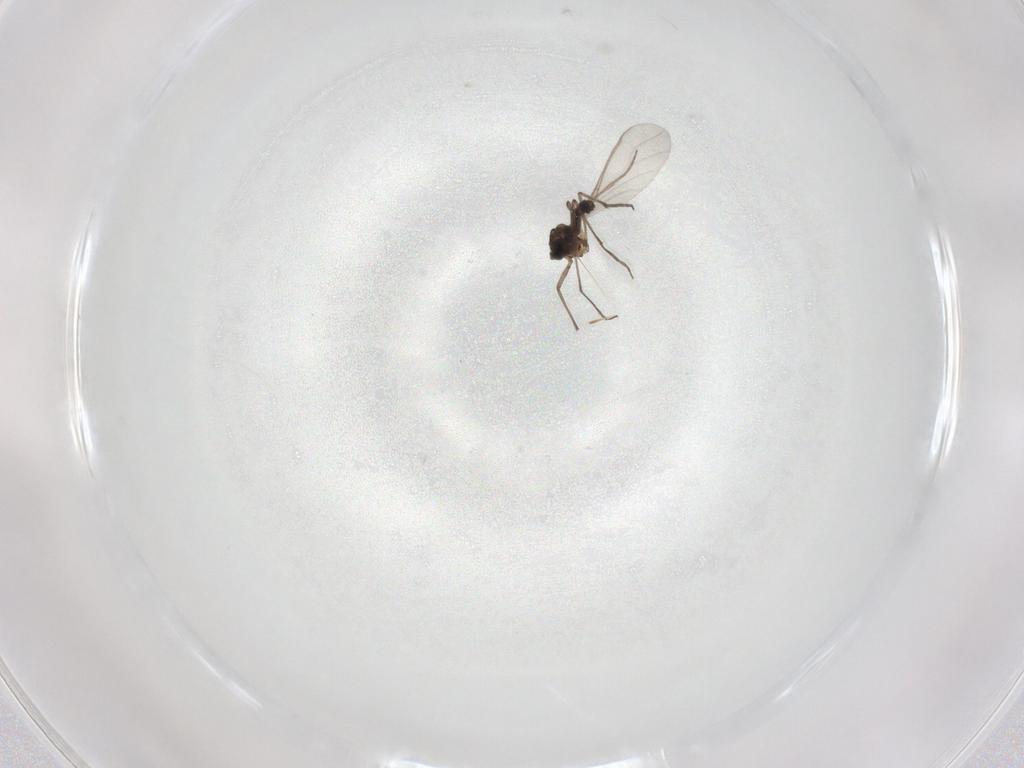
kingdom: Animalia
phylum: Arthropoda
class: Insecta
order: Diptera
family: Sciaridae
